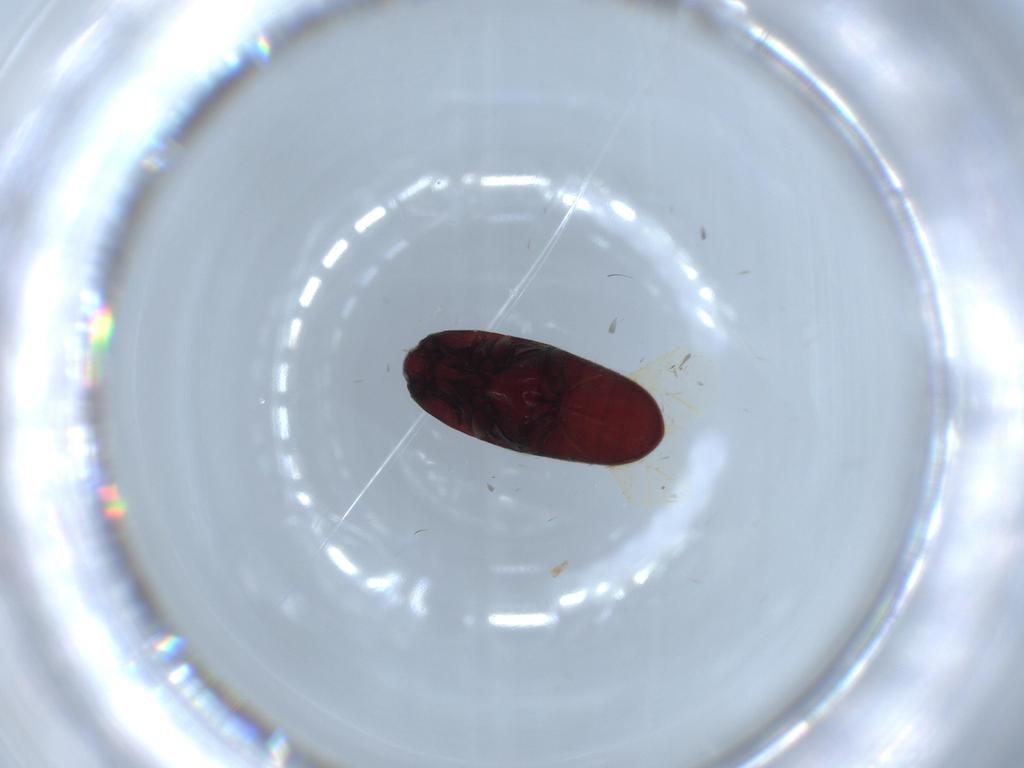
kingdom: Animalia
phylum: Arthropoda
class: Insecta
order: Coleoptera
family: Throscidae
